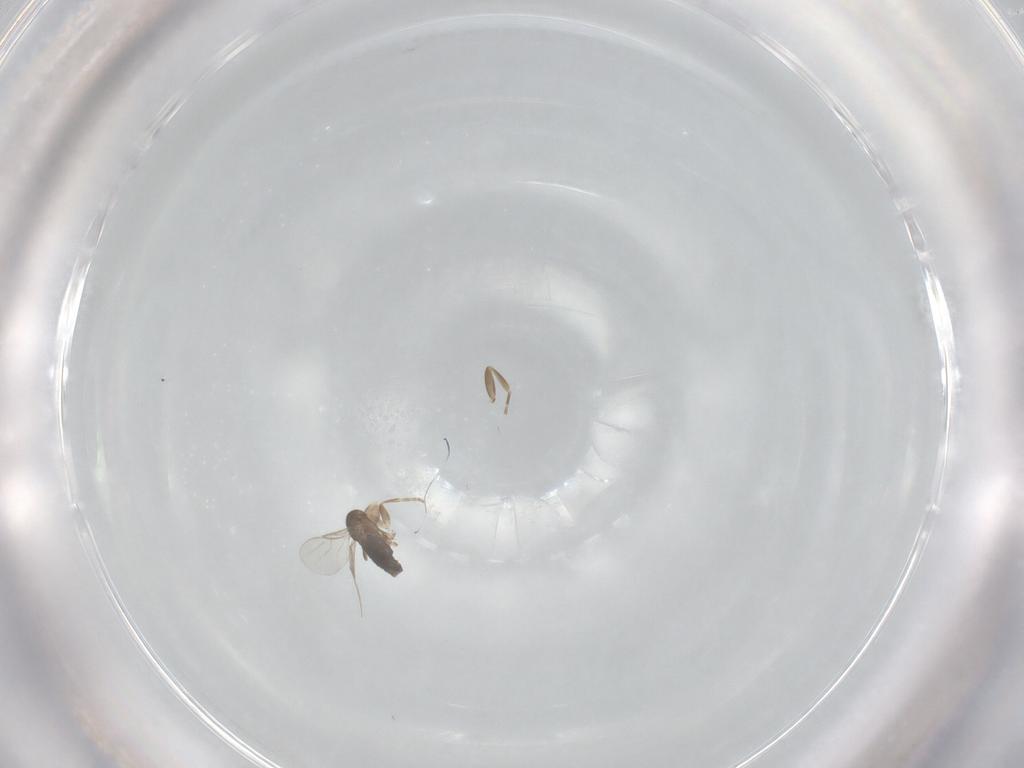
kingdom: Animalia
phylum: Arthropoda
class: Insecta
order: Diptera
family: Phoridae
